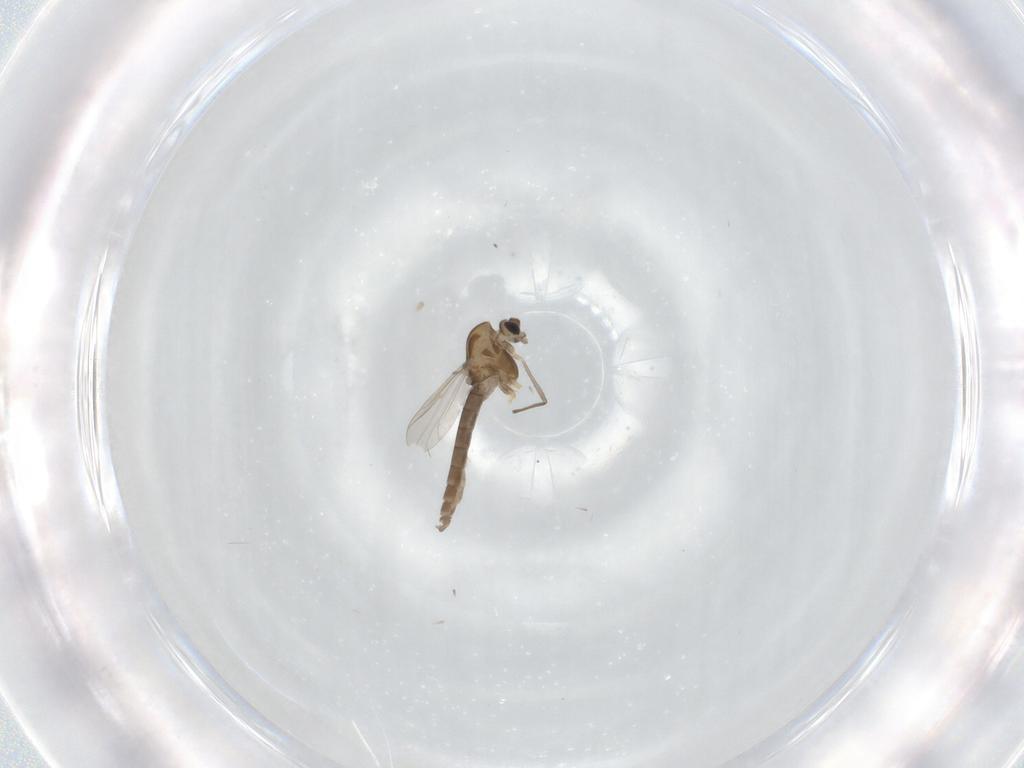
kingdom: Animalia
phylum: Arthropoda
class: Insecta
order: Diptera
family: Chironomidae
